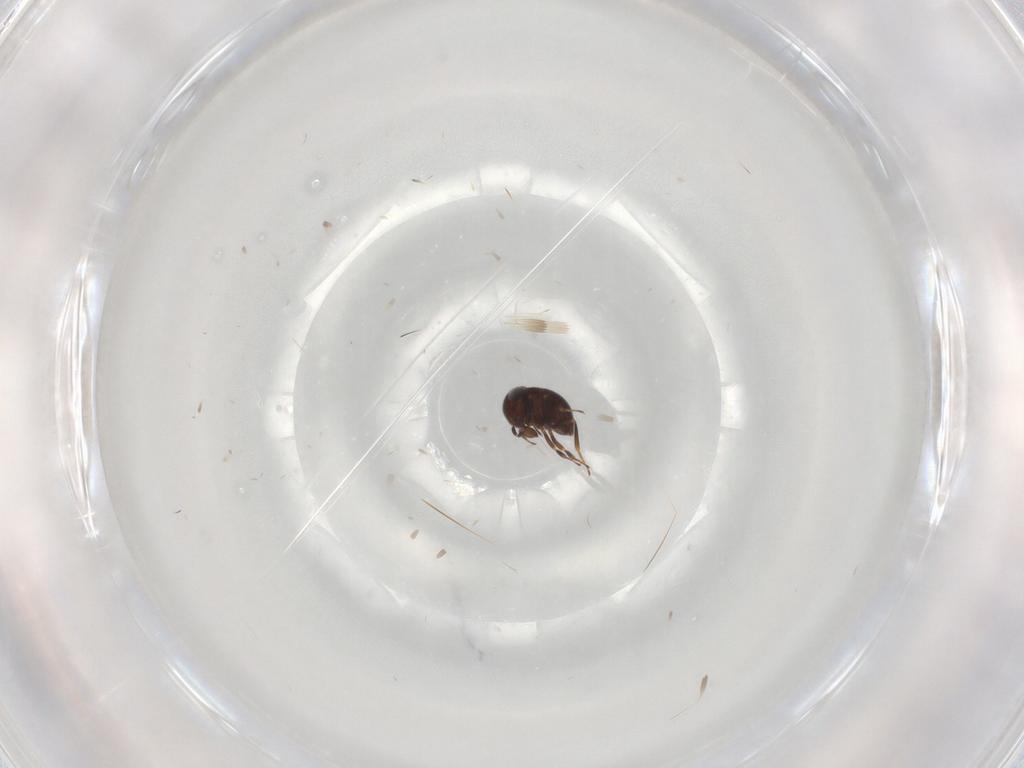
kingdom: Animalia
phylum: Arthropoda
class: Insecta
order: Hymenoptera
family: Scelionidae
